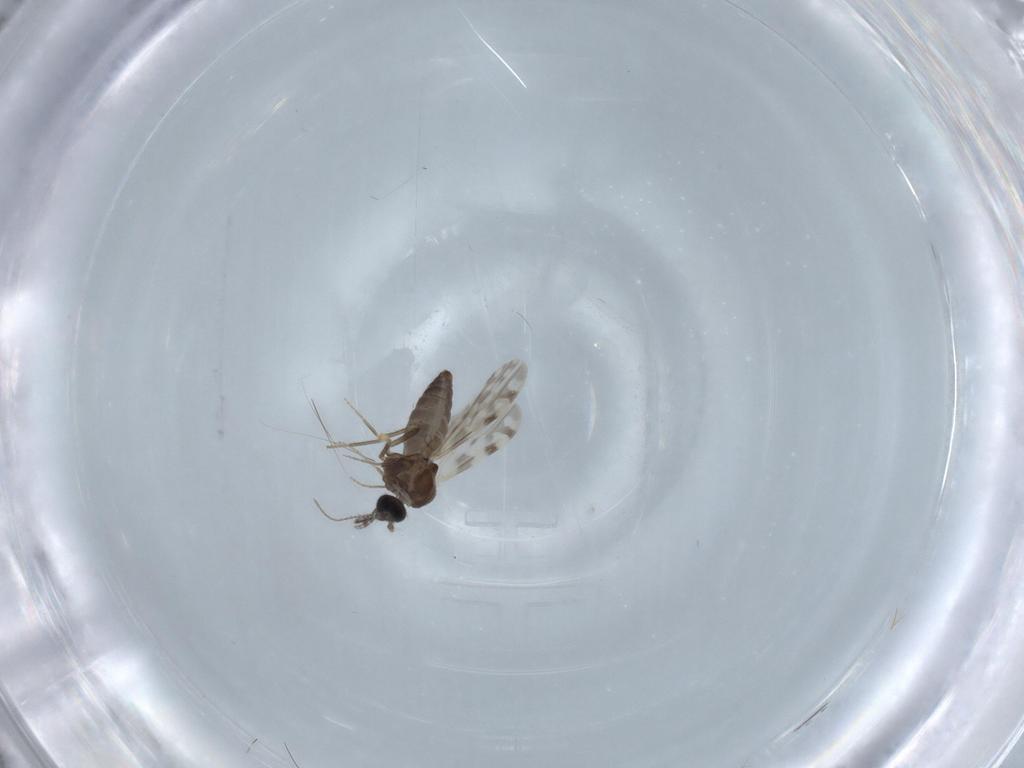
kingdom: Animalia
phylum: Arthropoda
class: Insecta
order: Diptera
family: Ceratopogonidae
